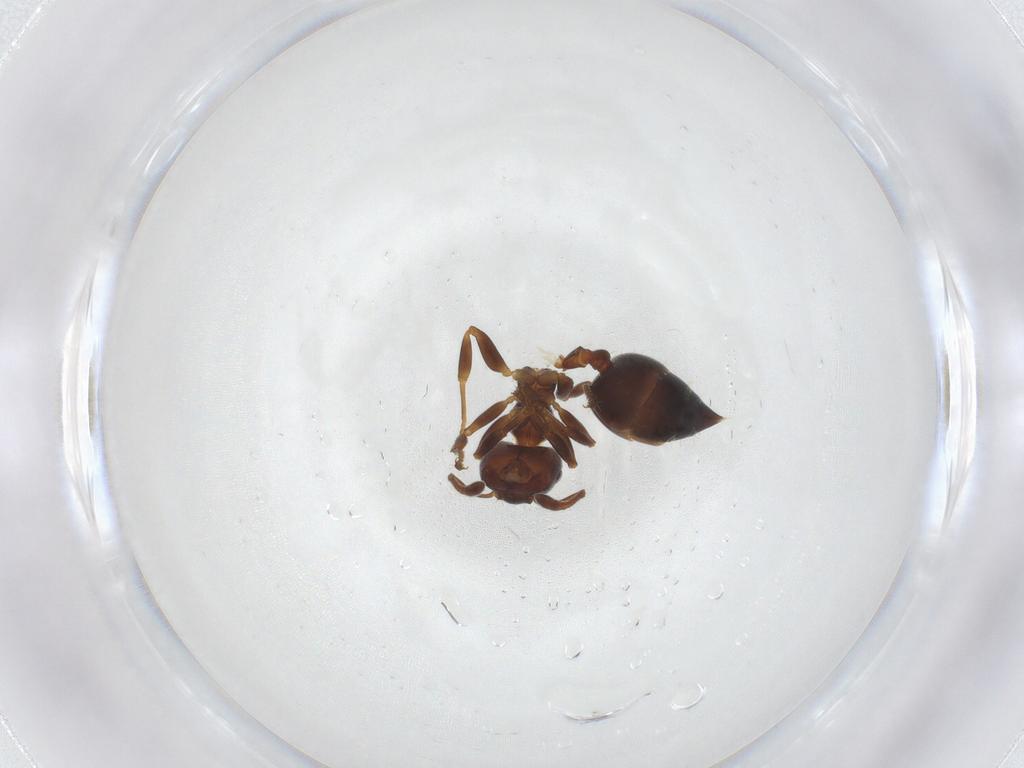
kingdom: Animalia
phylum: Arthropoda
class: Insecta
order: Hymenoptera
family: Formicidae
